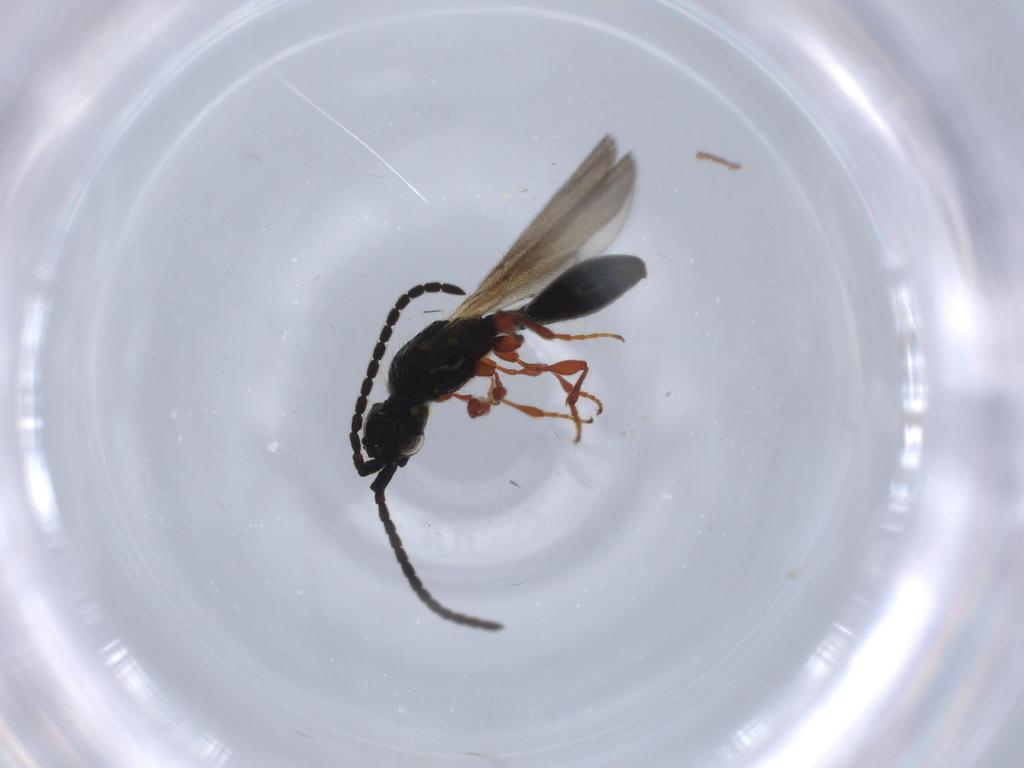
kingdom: Animalia
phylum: Arthropoda
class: Insecta
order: Hymenoptera
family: Diapriidae
